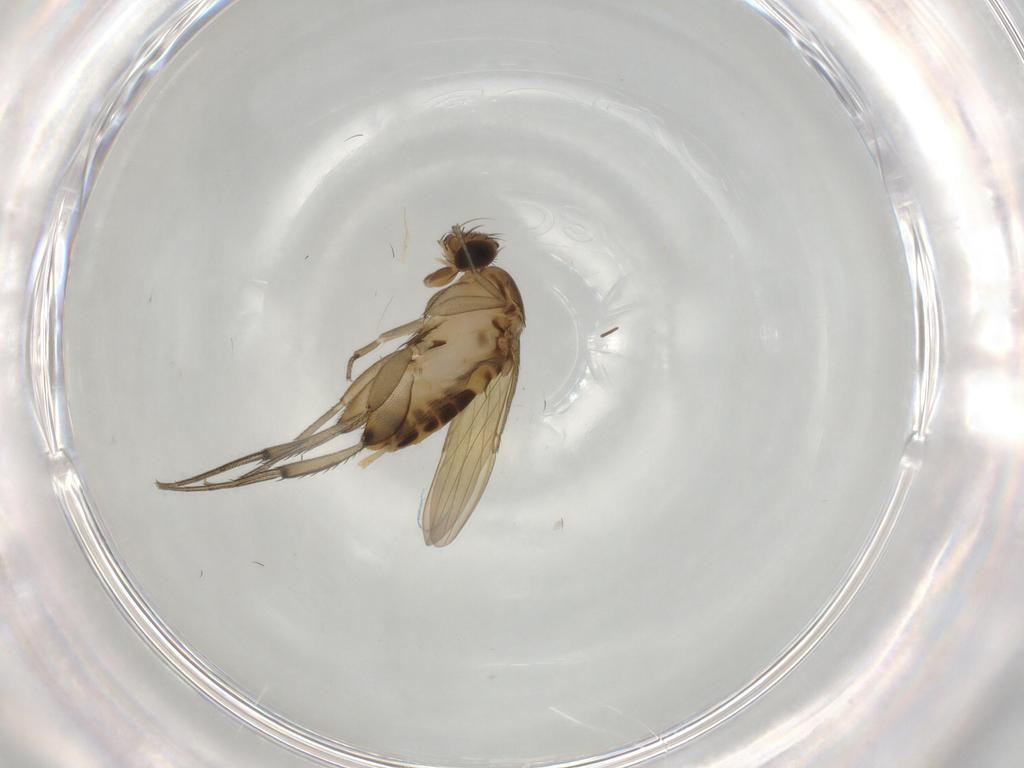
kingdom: Animalia
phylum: Arthropoda
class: Insecta
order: Diptera
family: Phoridae
